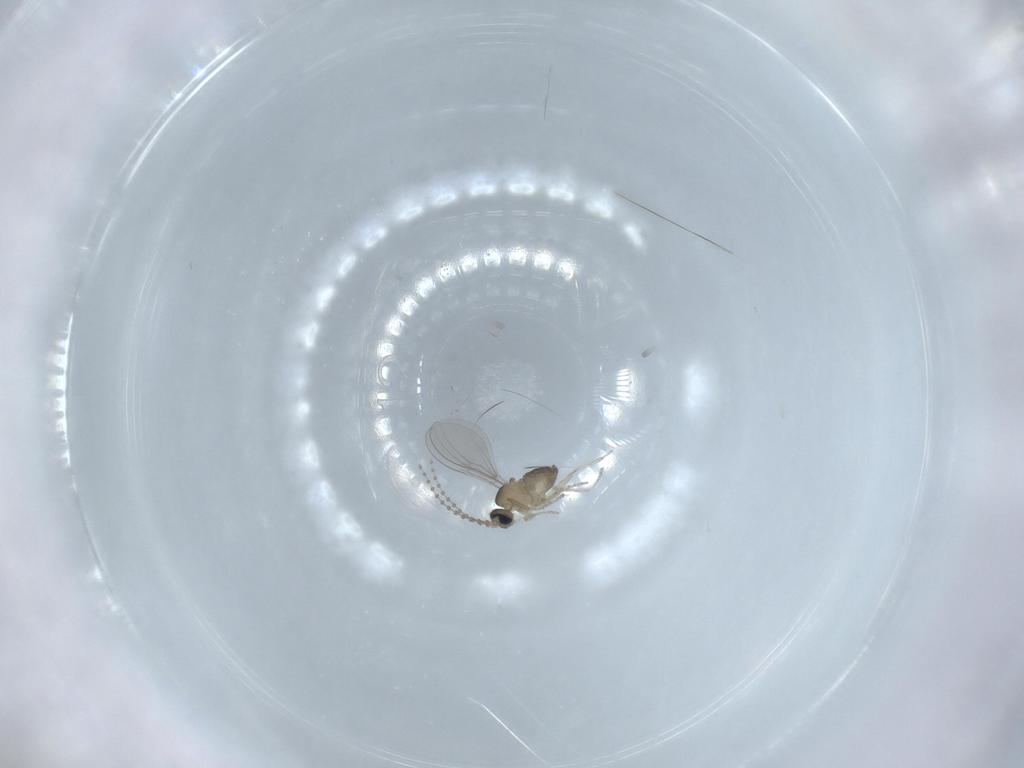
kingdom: Animalia
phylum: Arthropoda
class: Insecta
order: Diptera
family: Cecidomyiidae
